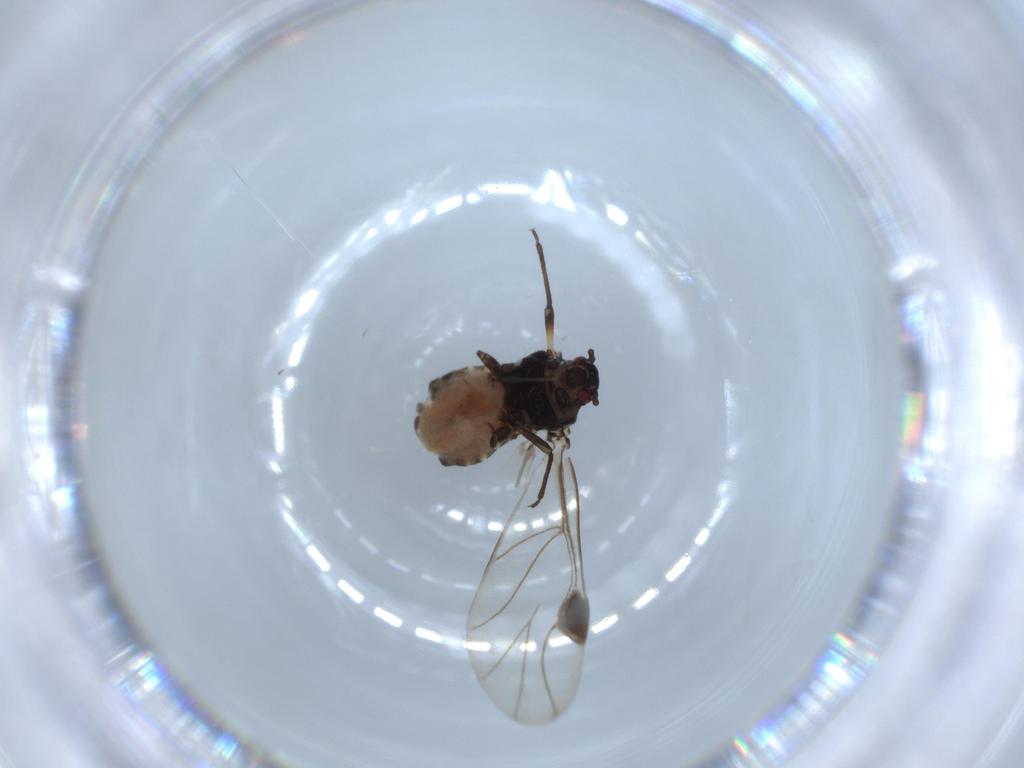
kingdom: Animalia
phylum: Arthropoda
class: Insecta
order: Hemiptera
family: Aphididae
